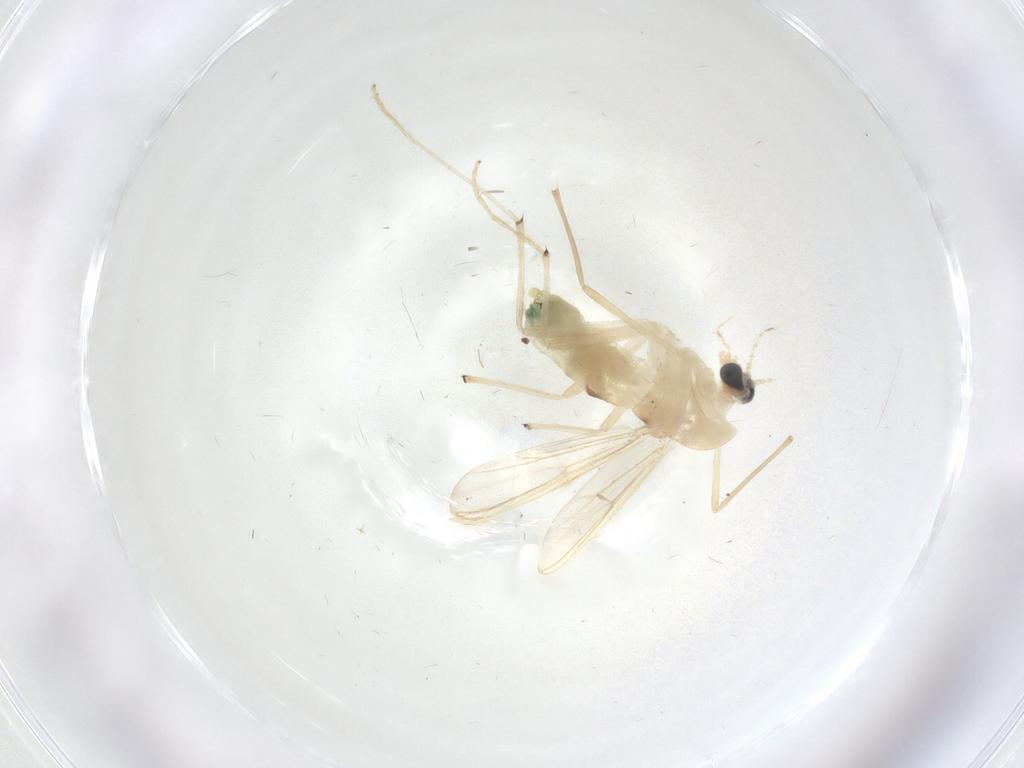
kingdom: Animalia
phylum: Arthropoda
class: Insecta
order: Diptera
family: Chironomidae
